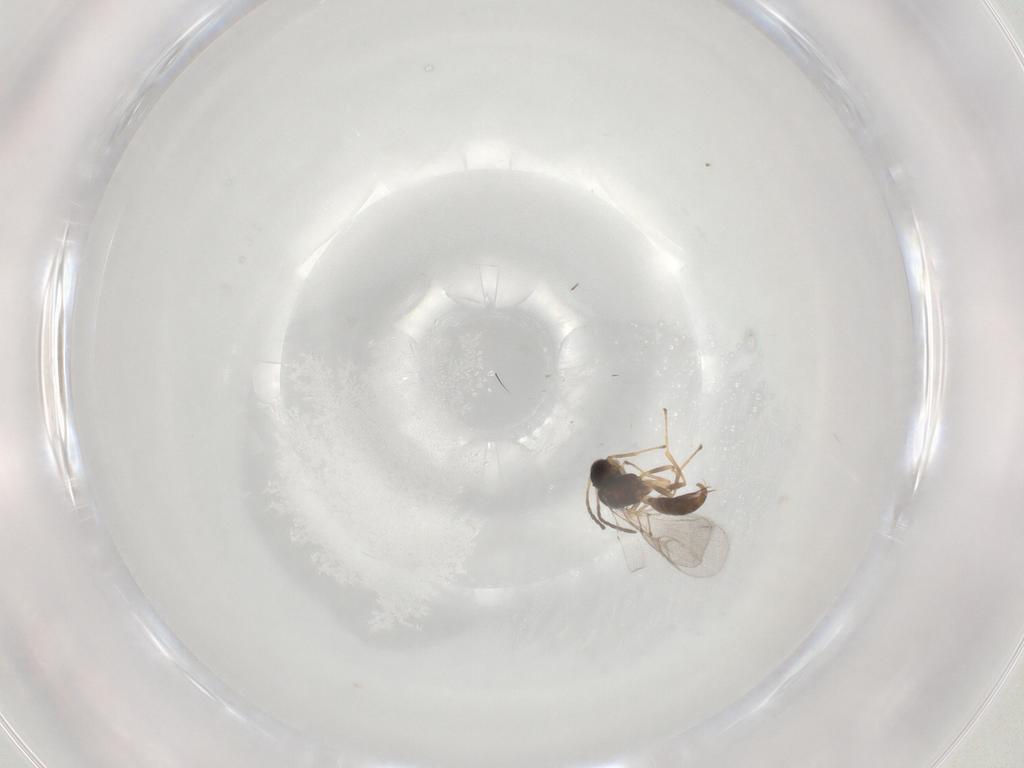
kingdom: Animalia
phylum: Arthropoda
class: Insecta
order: Hymenoptera
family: Braconidae
